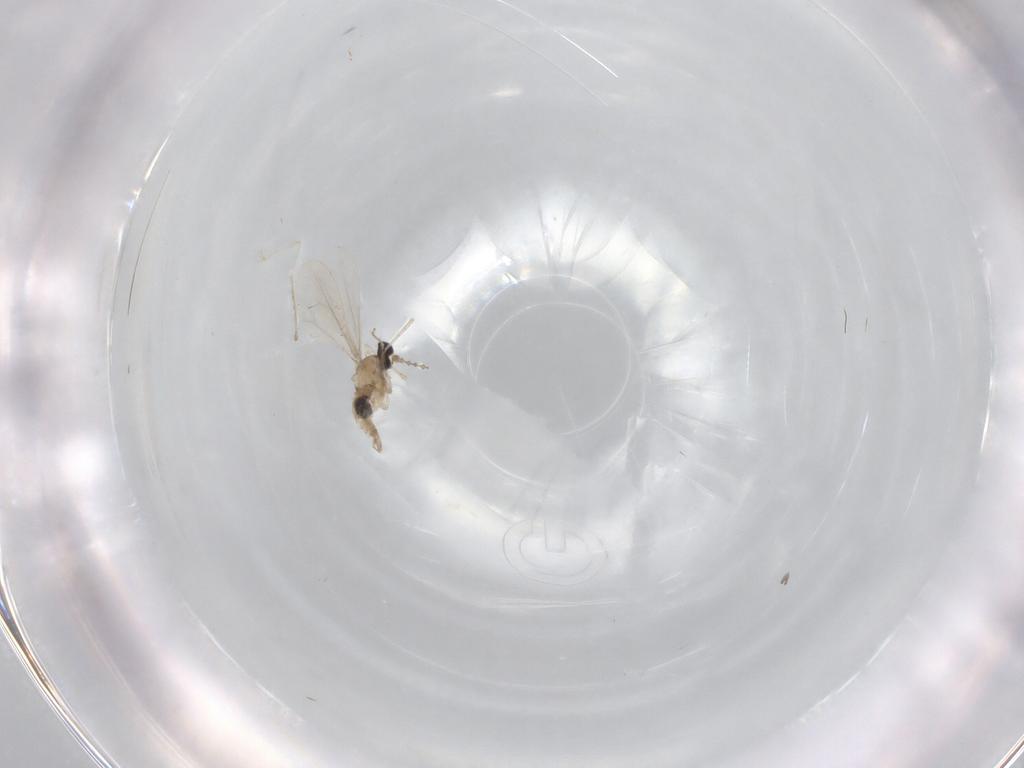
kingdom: Animalia
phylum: Arthropoda
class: Insecta
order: Diptera
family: Cecidomyiidae
